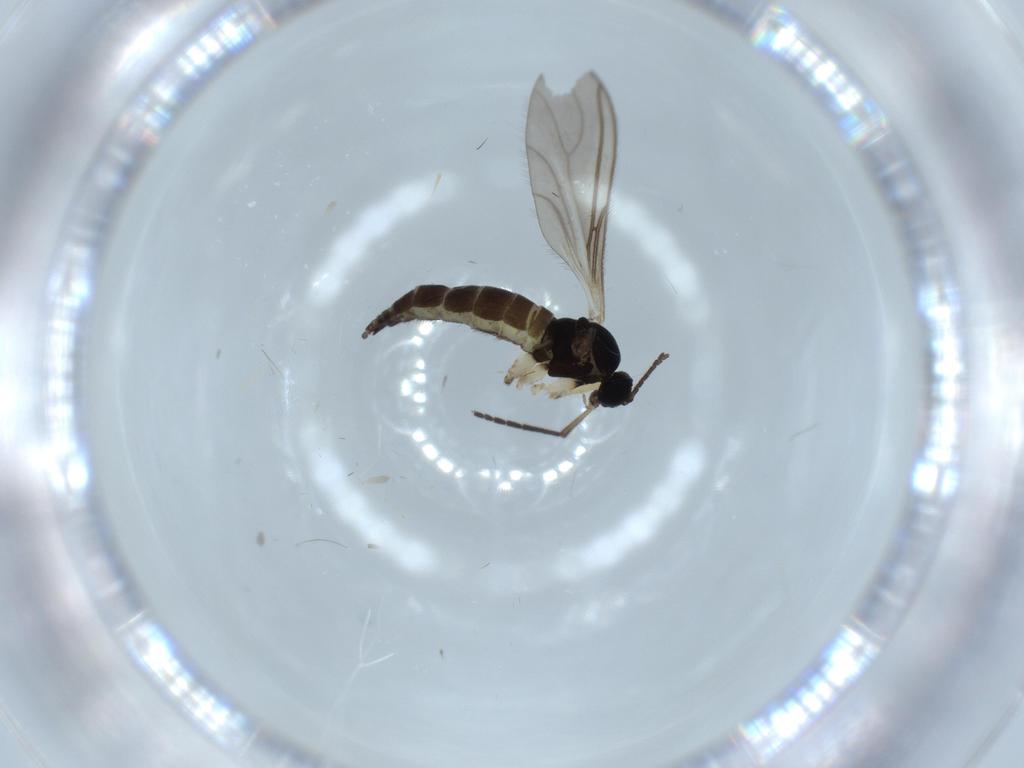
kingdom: Animalia
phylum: Arthropoda
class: Insecta
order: Diptera
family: Sciaridae
